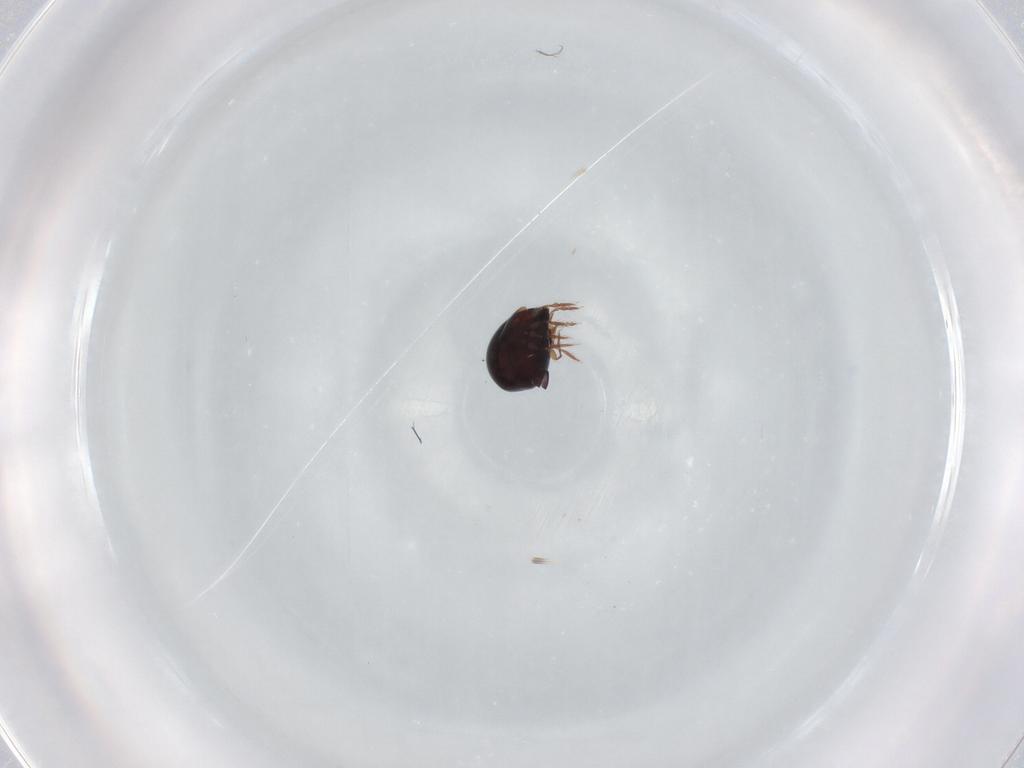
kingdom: Animalia
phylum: Arthropoda
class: Arachnida
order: Sarcoptiformes
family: Ceratozetidae
